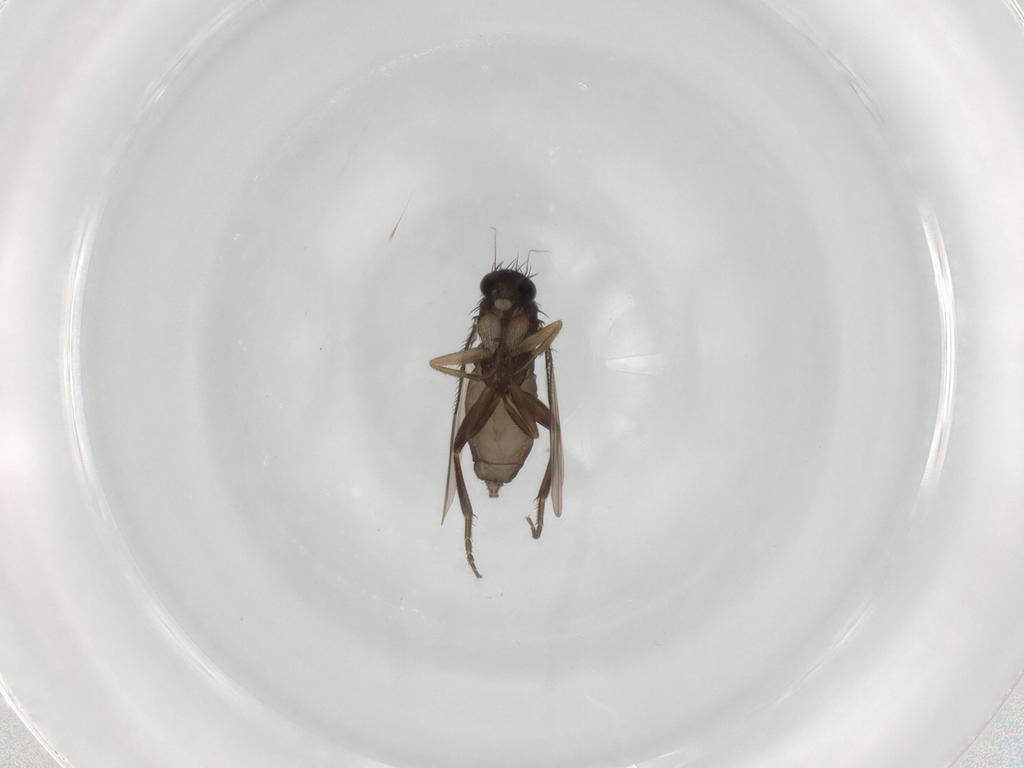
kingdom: Animalia
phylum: Arthropoda
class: Insecta
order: Diptera
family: Phoridae
